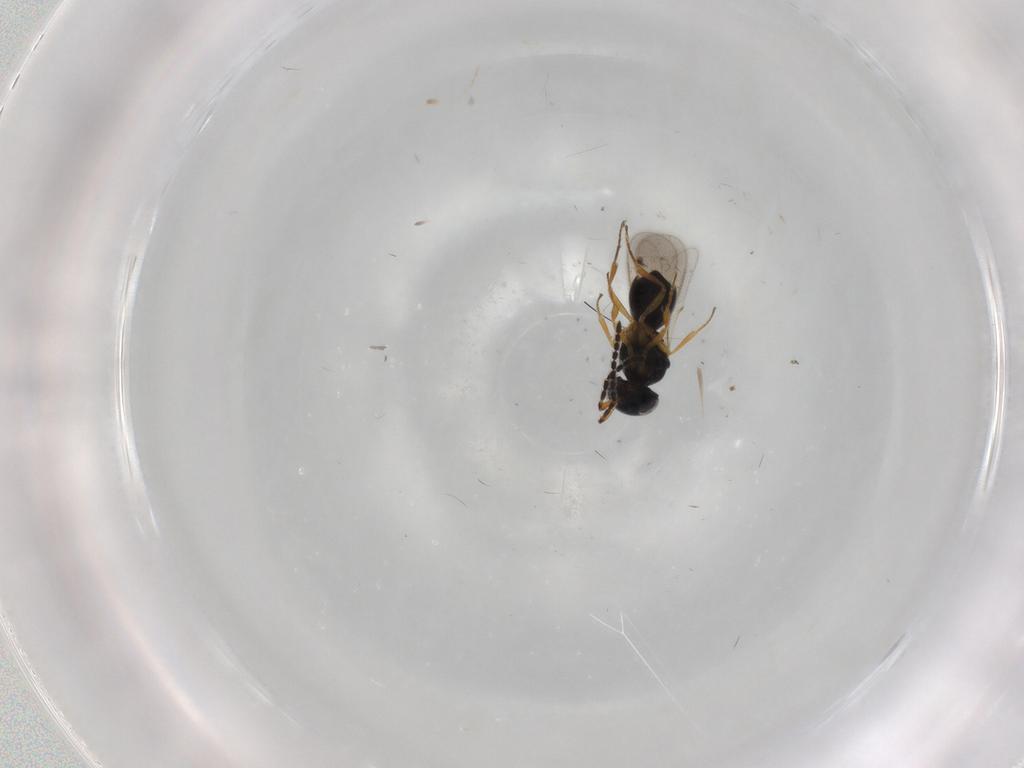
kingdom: Animalia
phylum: Arthropoda
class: Insecta
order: Hymenoptera
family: Scelionidae
